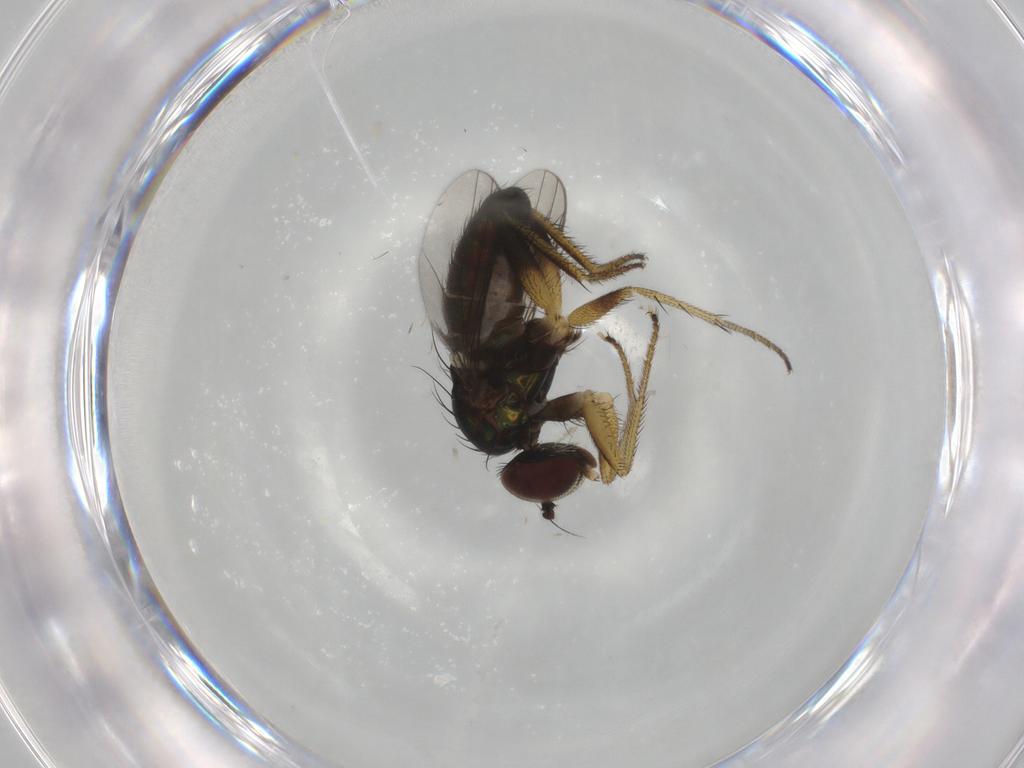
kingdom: Animalia
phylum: Arthropoda
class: Insecta
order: Diptera
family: Dolichopodidae
